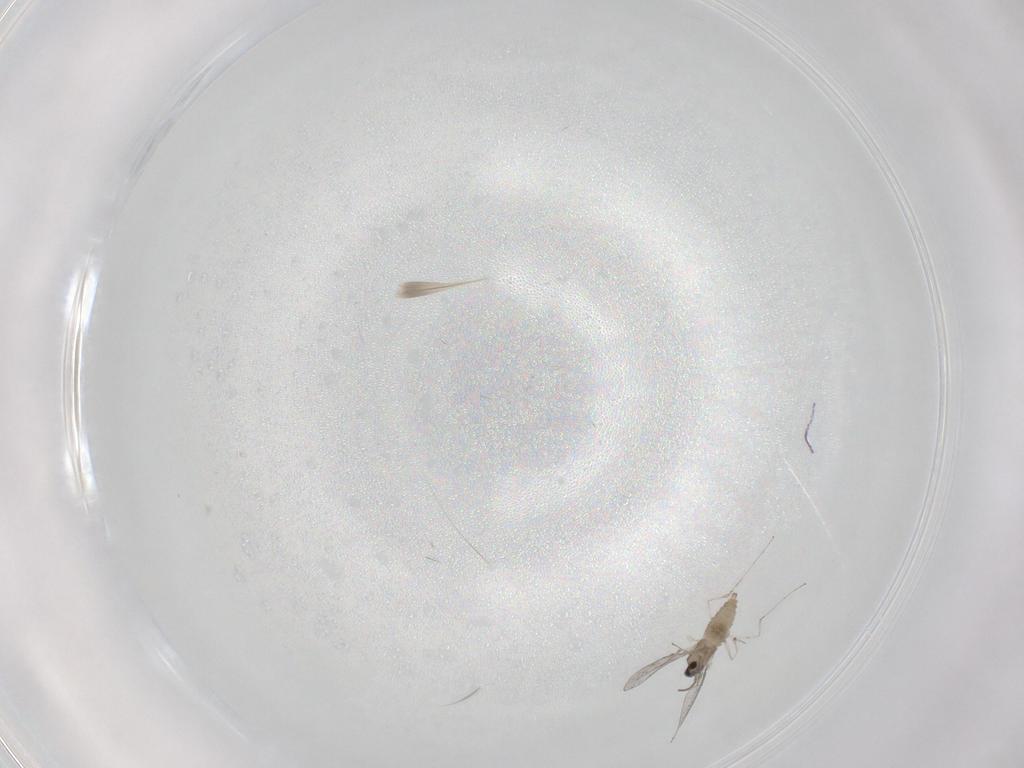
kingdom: Animalia
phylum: Arthropoda
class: Insecta
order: Diptera
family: Cecidomyiidae
